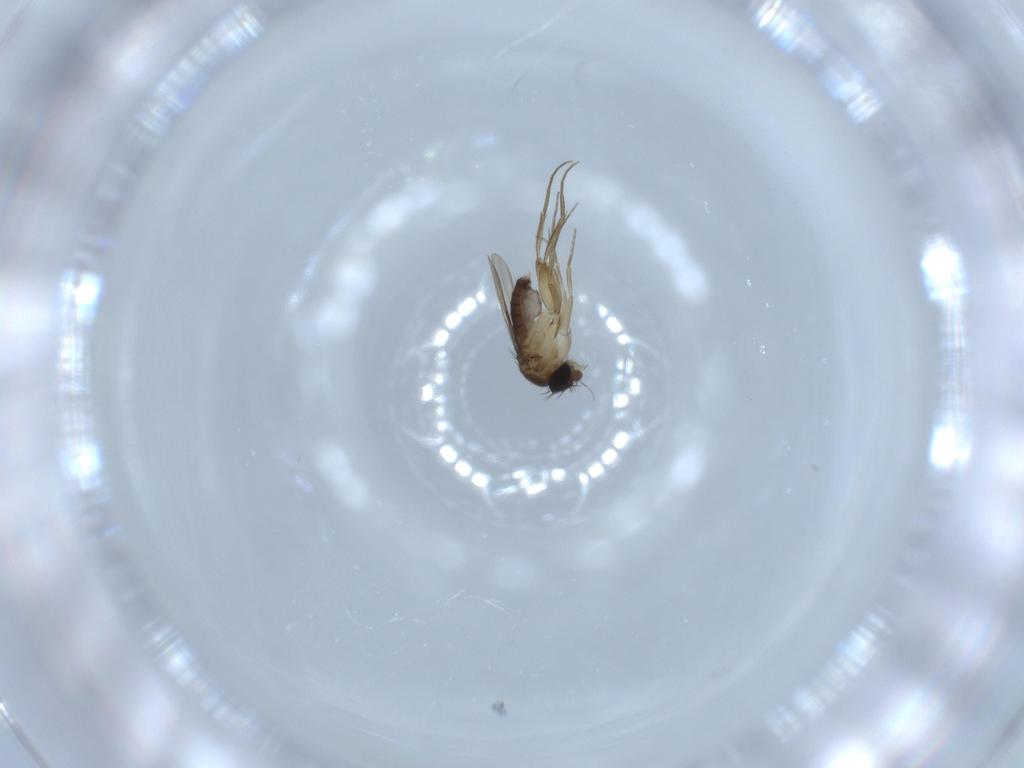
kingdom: Animalia
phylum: Arthropoda
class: Insecta
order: Diptera
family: Phoridae
